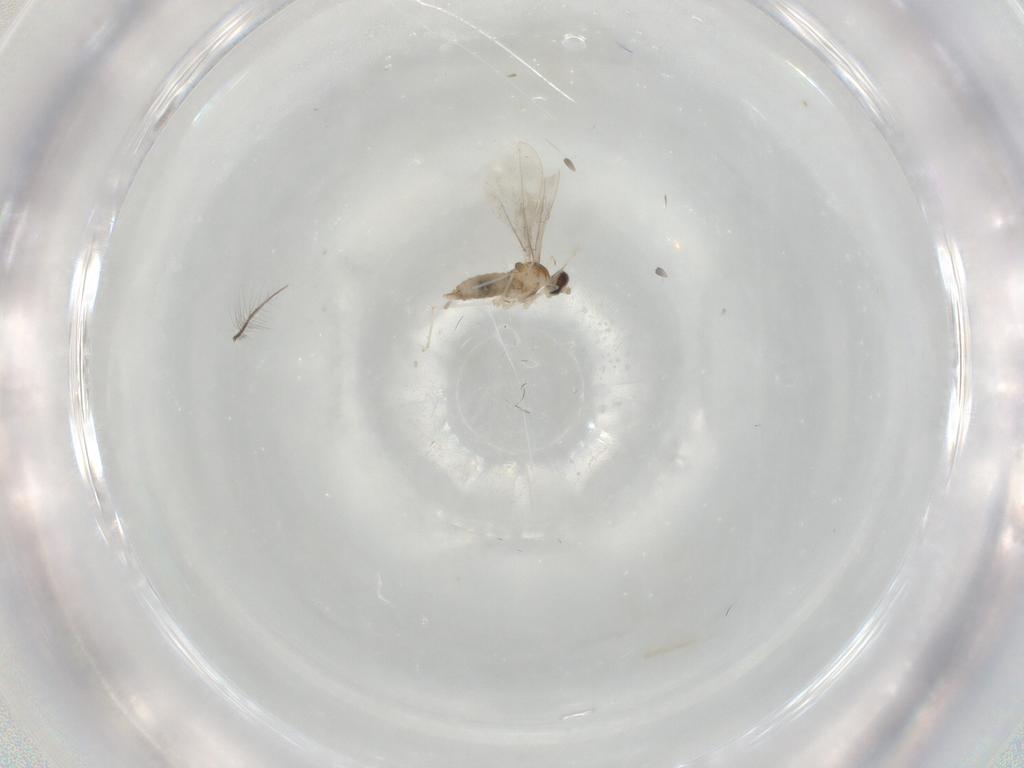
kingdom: Animalia
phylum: Arthropoda
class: Insecta
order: Diptera
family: Cecidomyiidae
